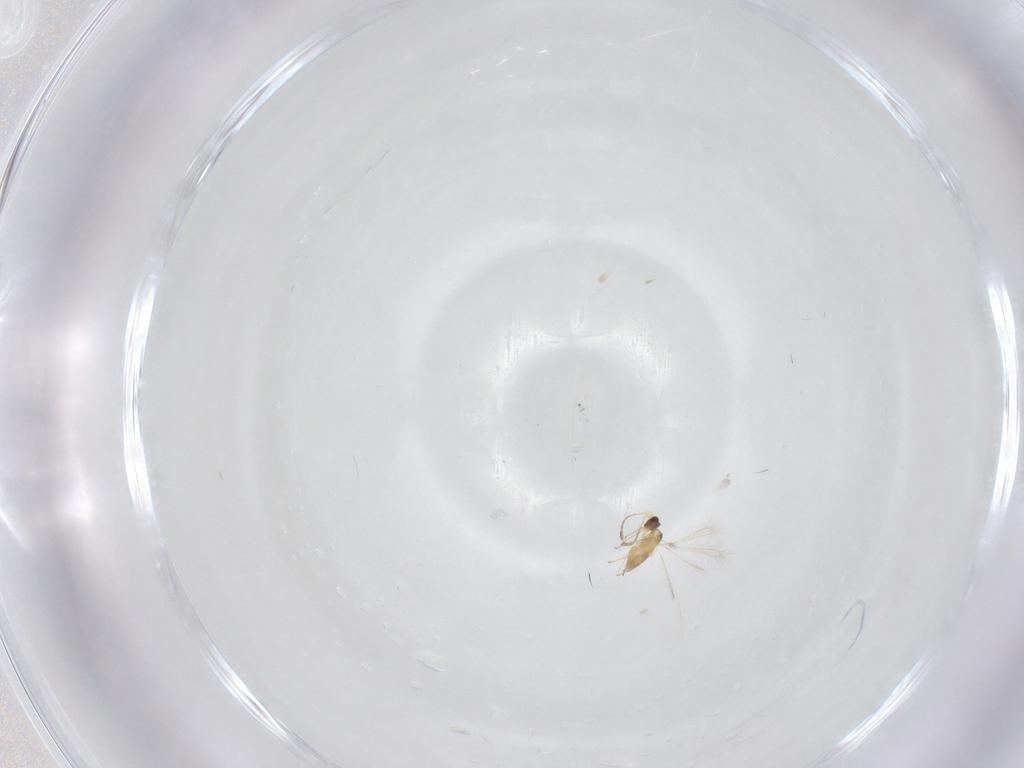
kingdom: Animalia
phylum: Arthropoda
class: Insecta
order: Hymenoptera
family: Mymaridae
